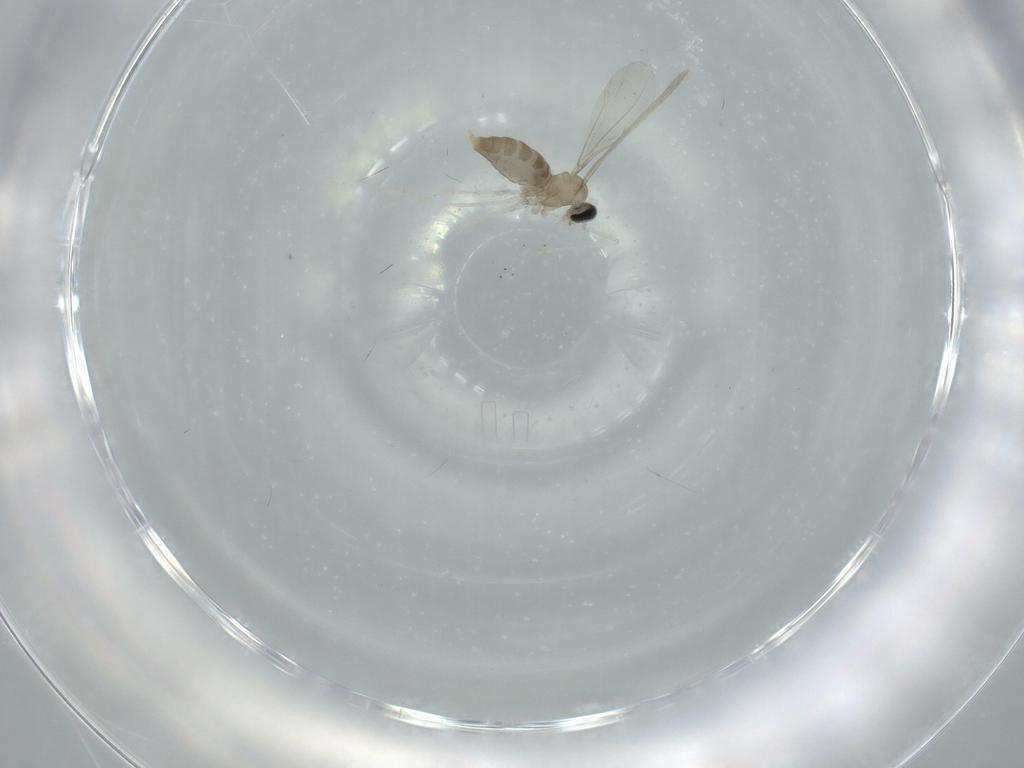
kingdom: Animalia
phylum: Arthropoda
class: Insecta
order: Diptera
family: Cecidomyiidae
